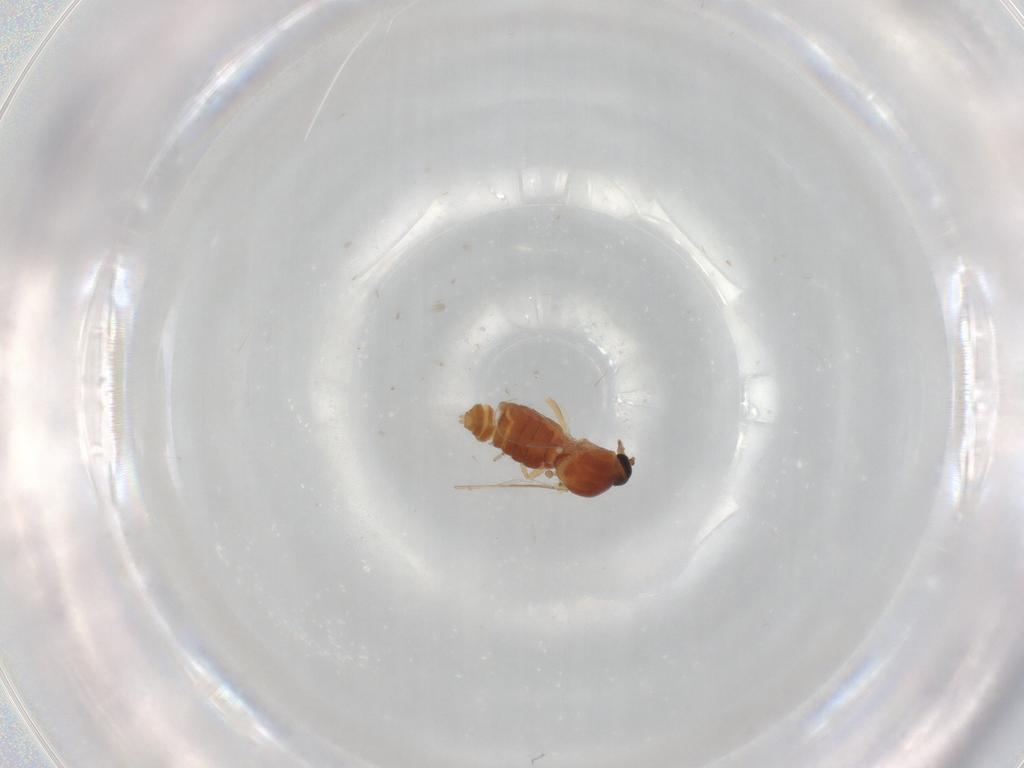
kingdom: Animalia
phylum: Arthropoda
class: Insecta
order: Diptera
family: Ceratopogonidae
